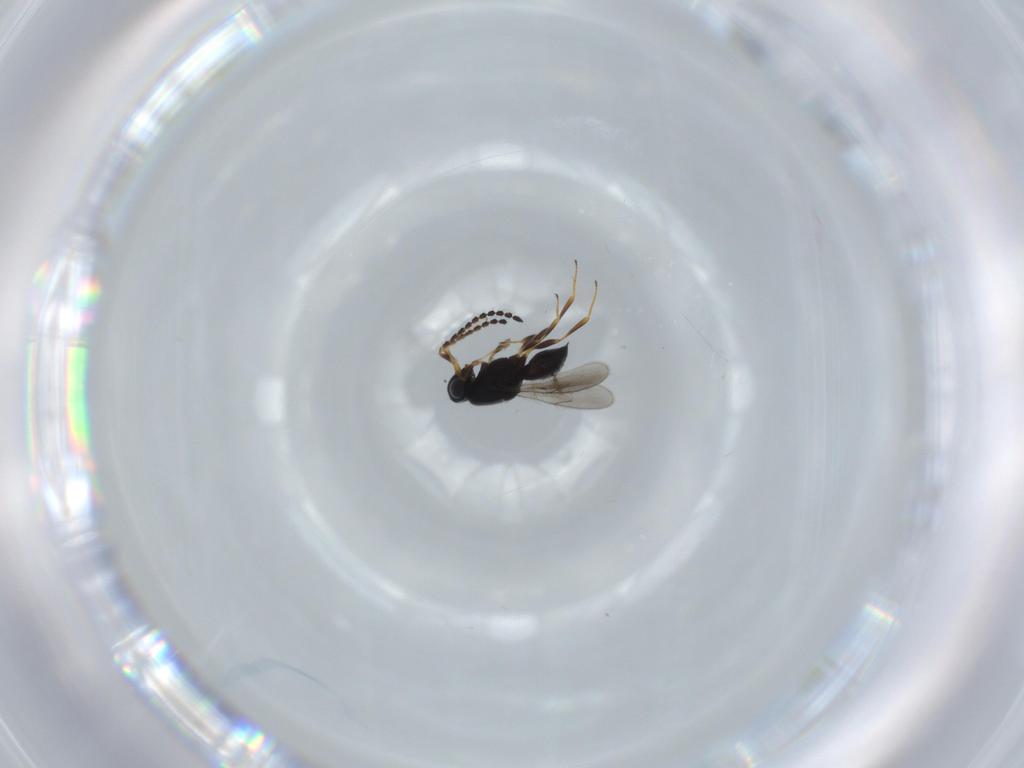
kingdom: Animalia
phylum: Arthropoda
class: Insecta
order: Hymenoptera
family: Scelionidae
